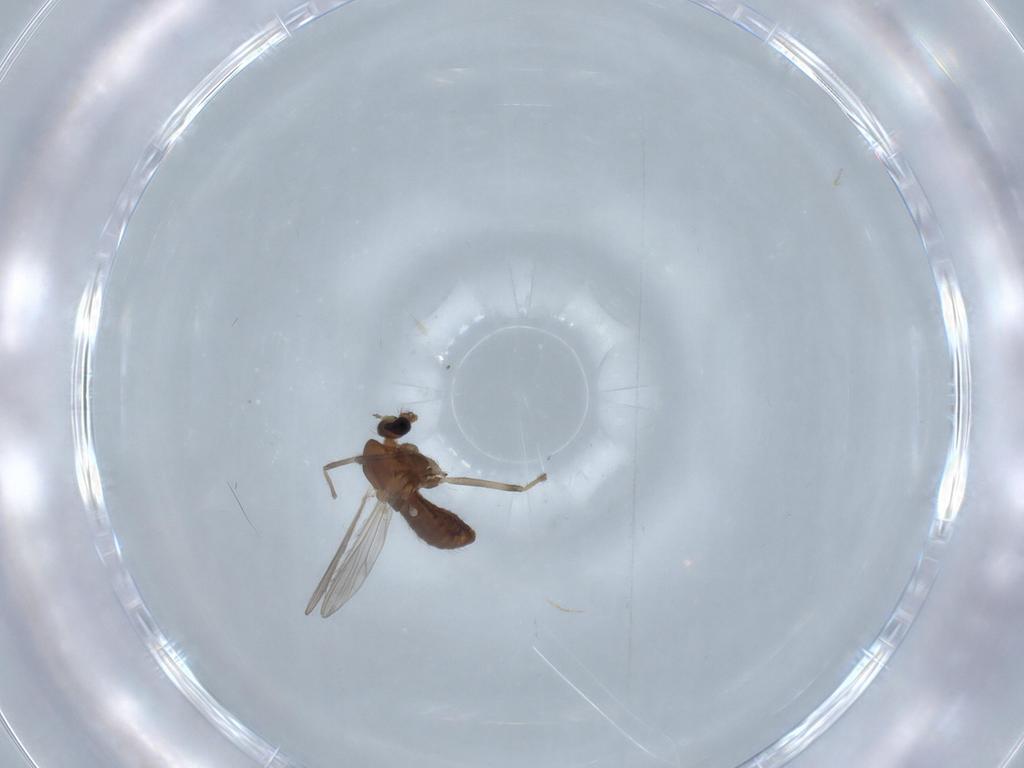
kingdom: Animalia
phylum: Arthropoda
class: Insecta
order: Diptera
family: Chironomidae
